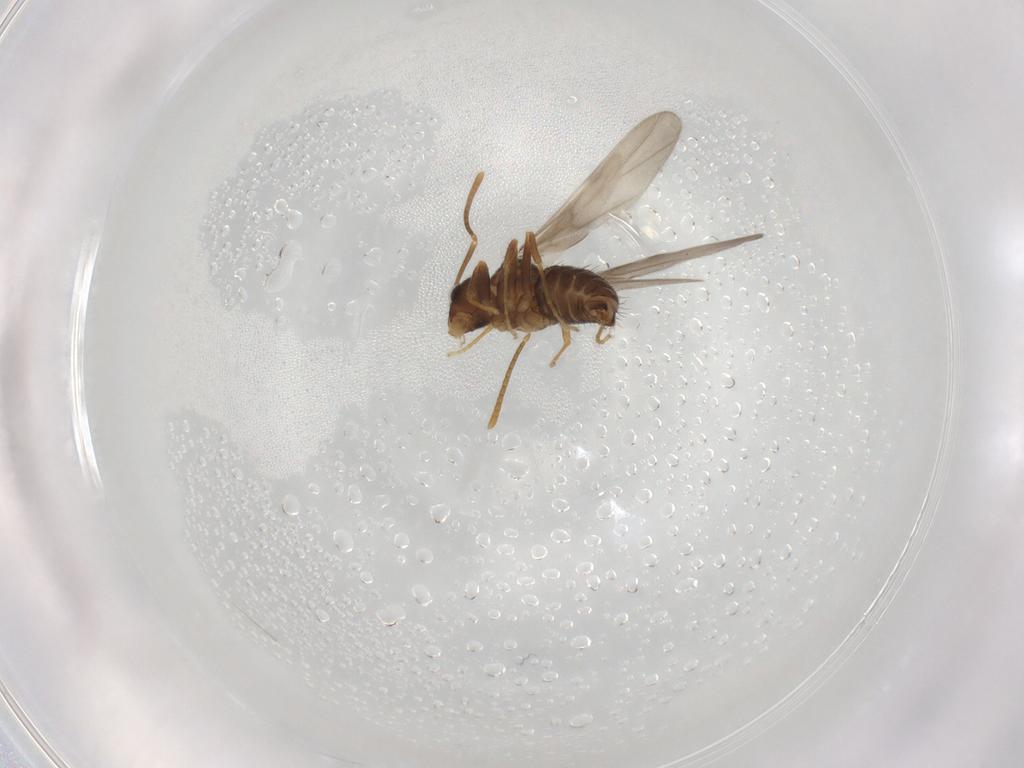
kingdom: Animalia
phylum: Arthropoda
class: Insecta
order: Hymenoptera
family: Formicidae
